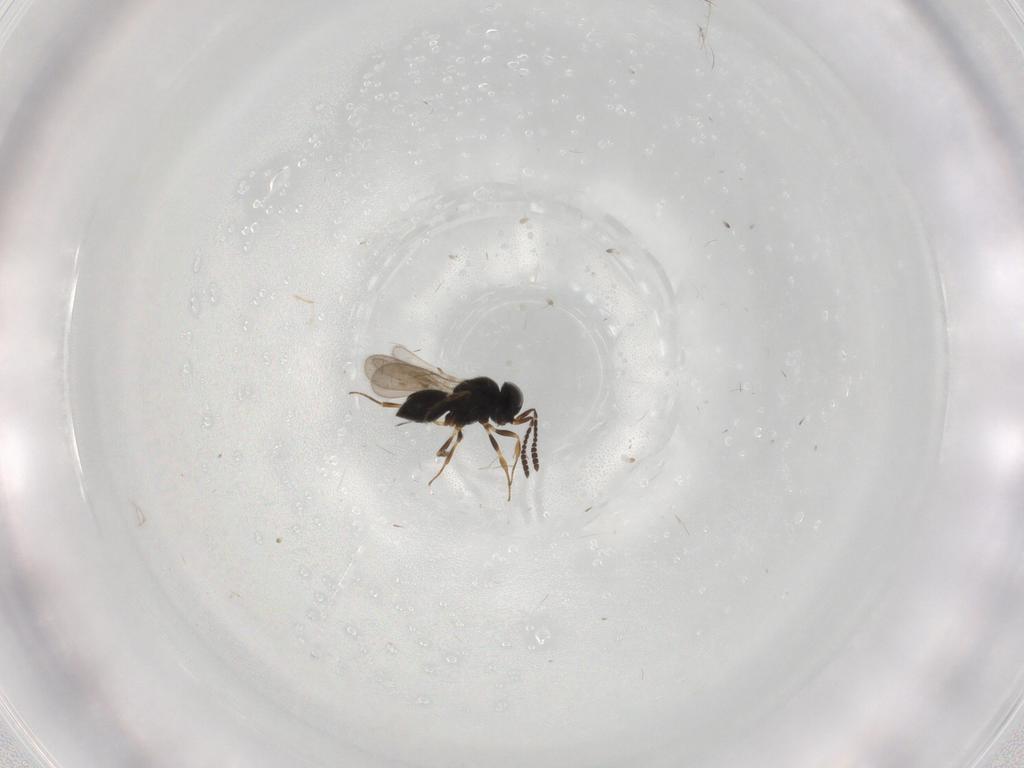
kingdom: Animalia
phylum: Arthropoda
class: Insecta
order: Hymenoptera
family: Scelionidae
